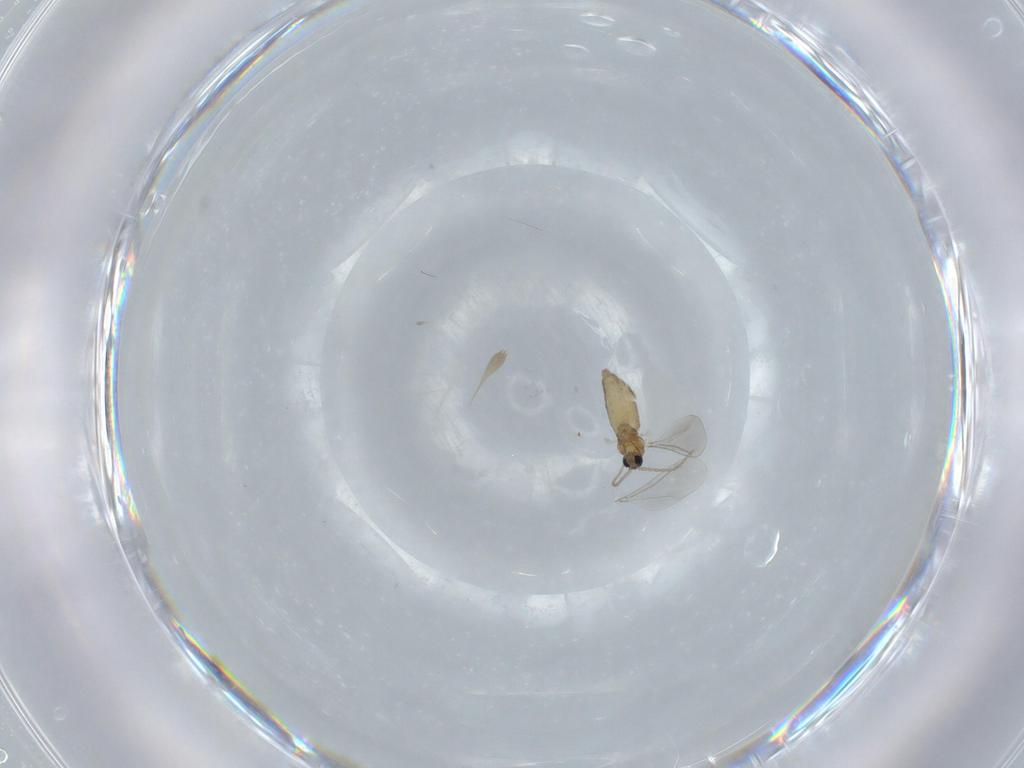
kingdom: Animalia
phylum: Arthropoda
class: Insecta
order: Diptera
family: Cecidomyiidae
